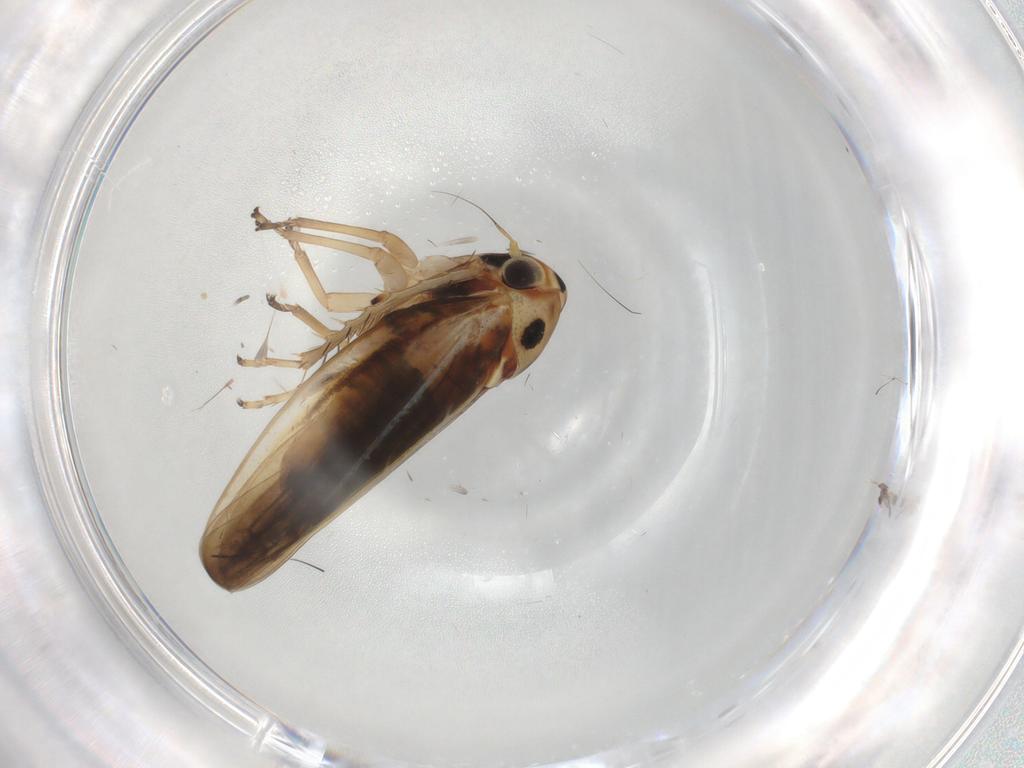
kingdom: Animalia
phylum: Arthropoda
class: Insecta
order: Hemiptera
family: Cicadellidae
